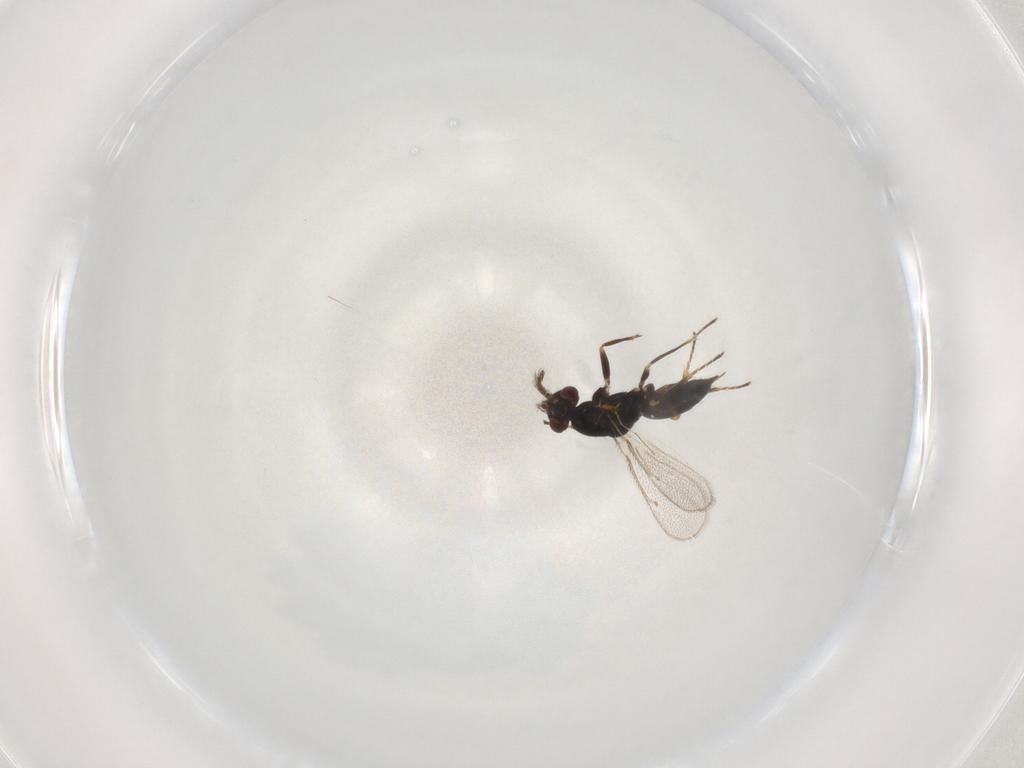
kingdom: Animalia
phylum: Arthropoda
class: Insecta
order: Hymenoptera
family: Eulophidae
